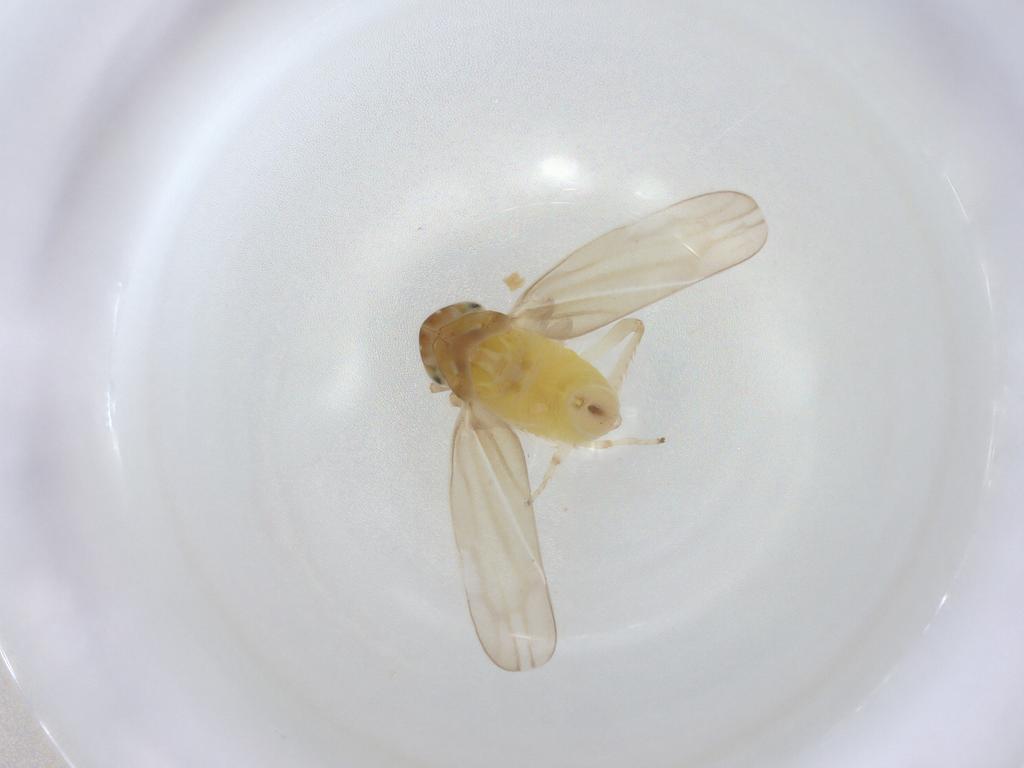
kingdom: Animalia
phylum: Arthropoda
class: Insecta
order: Hemiptera
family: Cicadellidae
